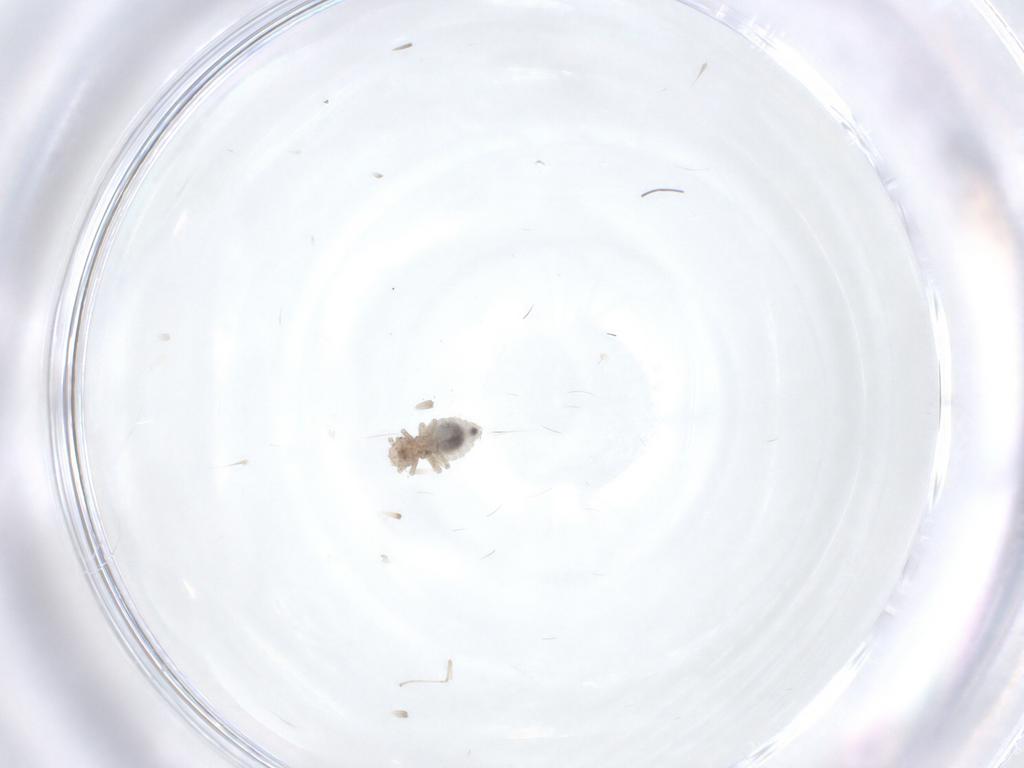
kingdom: Animalia
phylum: Arthropoda
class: Insecta
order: Psocodea
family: Caeciliusidae
